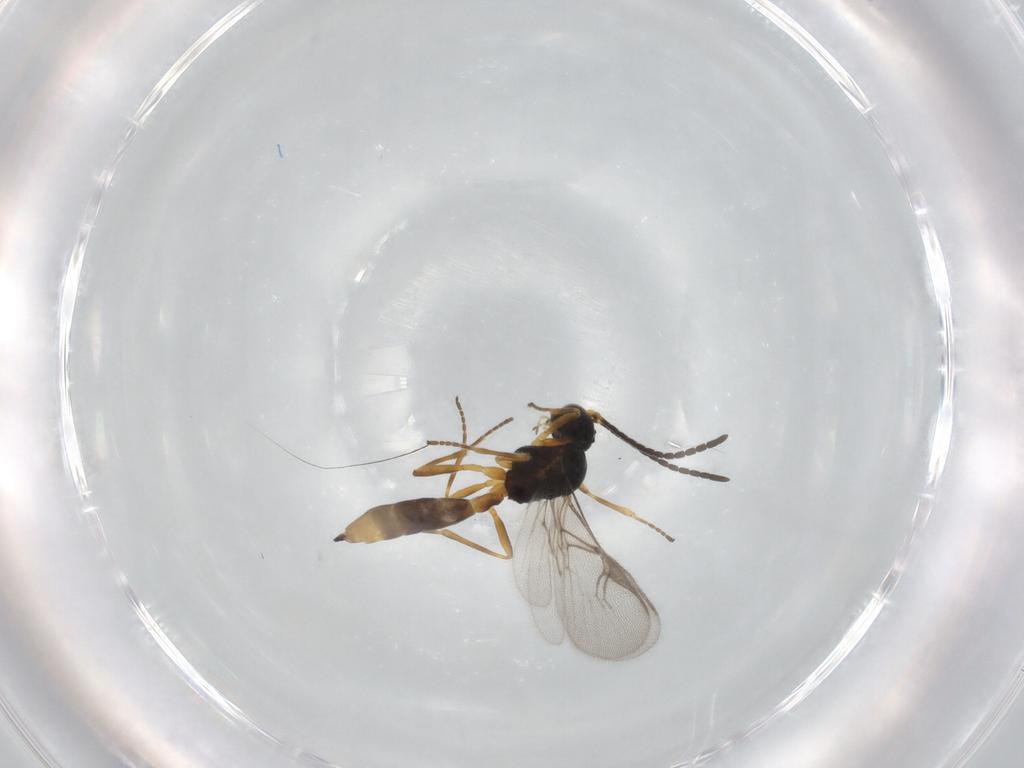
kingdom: Animalia
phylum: Arthropoda
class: Insecta
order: Hymenoptera
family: Braconidae
